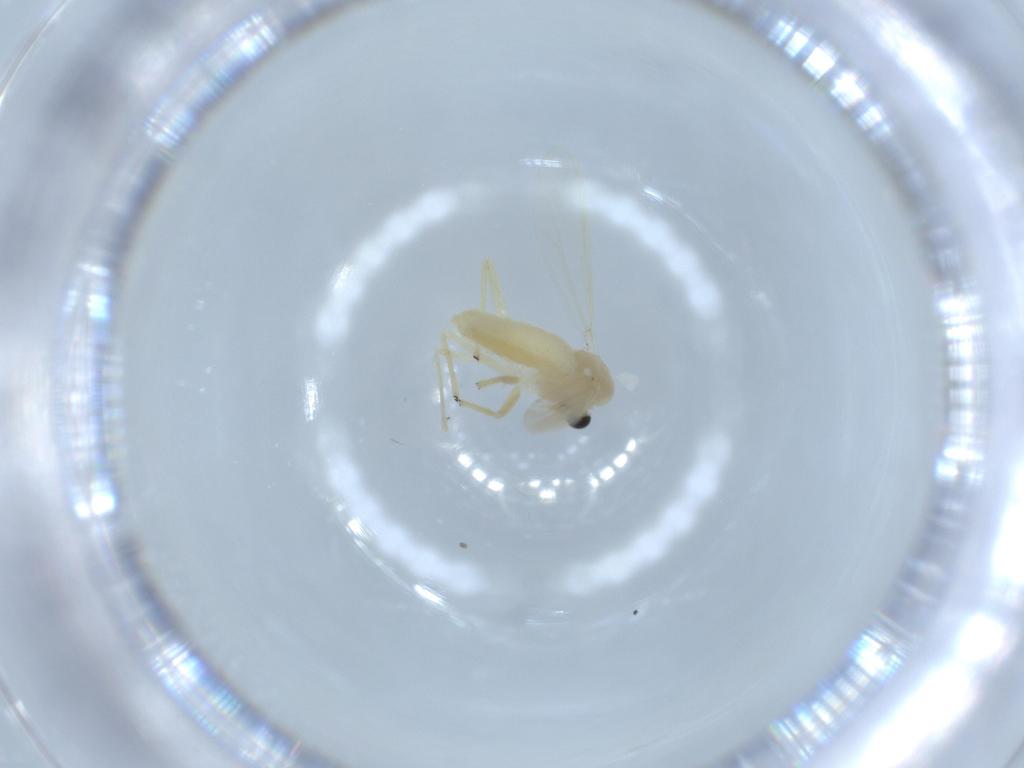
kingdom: Animalia
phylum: Arthropoda
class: Insecta
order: Diptera
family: Chironomidae
